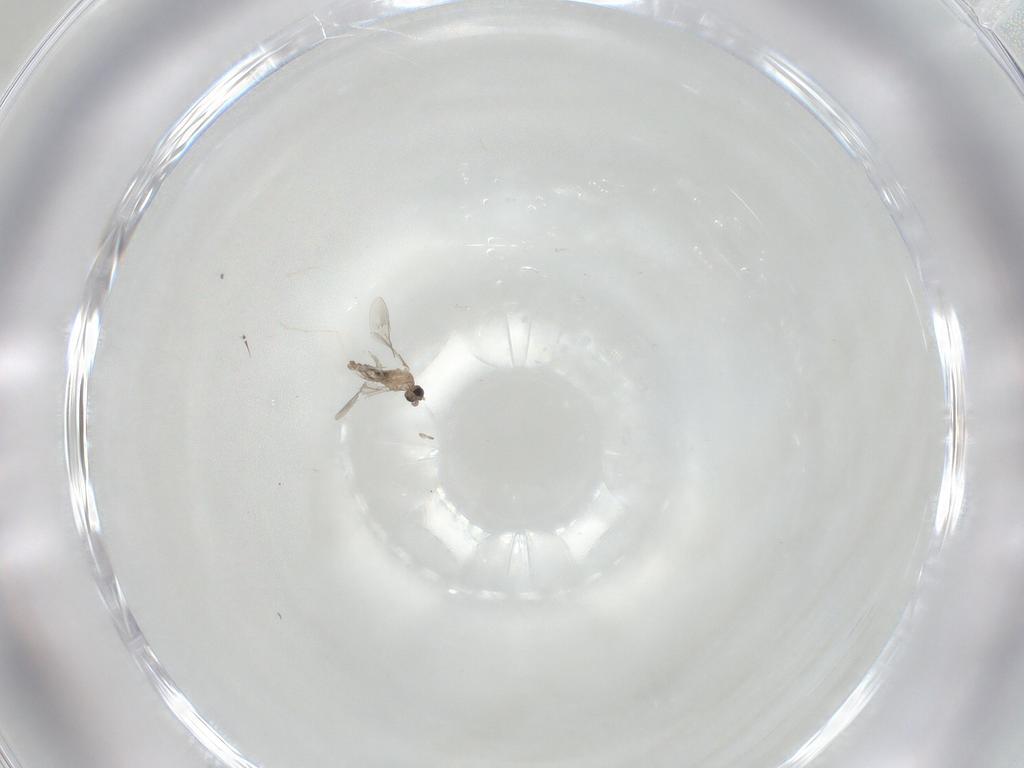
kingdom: Animalia
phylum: Arthropoda
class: Insecta
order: Diptera
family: Cecidomyiidae
